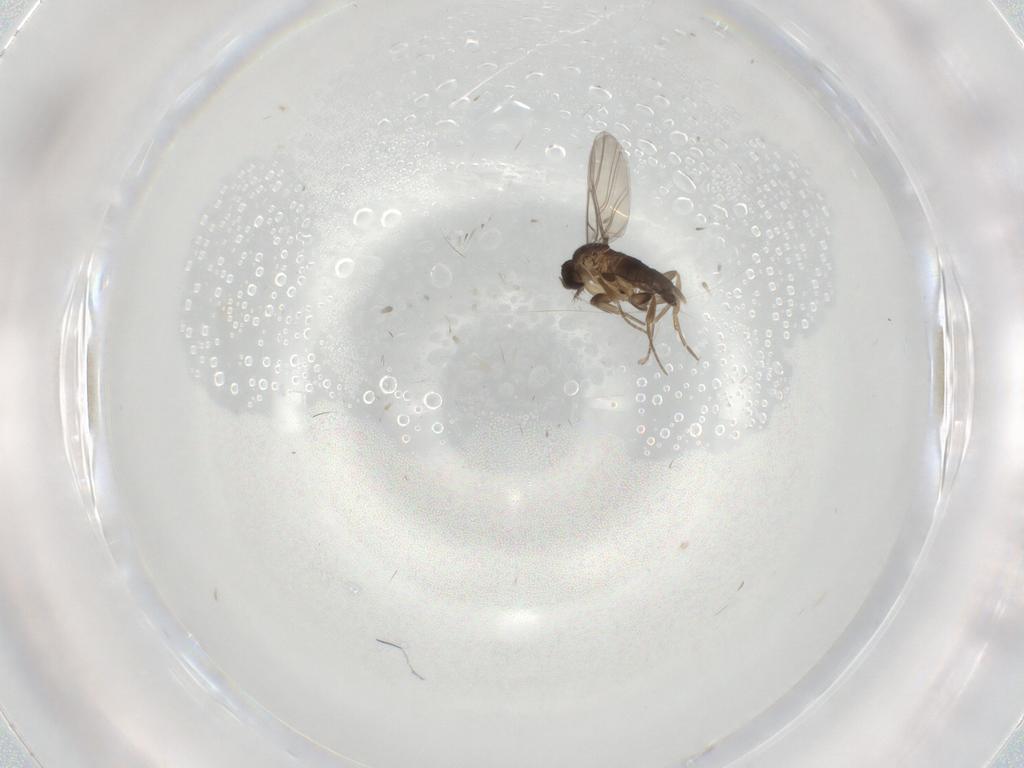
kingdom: Animalia
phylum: Arthropoda
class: Insecta
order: Diptera
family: Phoridae
